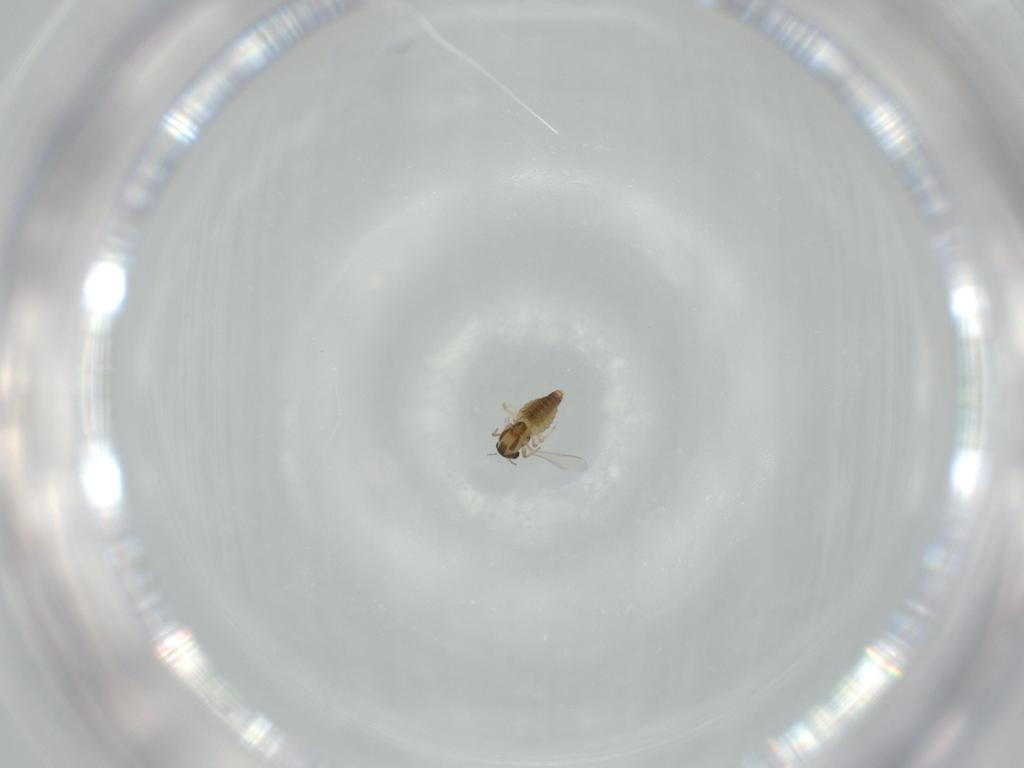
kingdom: Animalia
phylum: Arthropoda
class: Insecta
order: Diptera
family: Chironomidae
